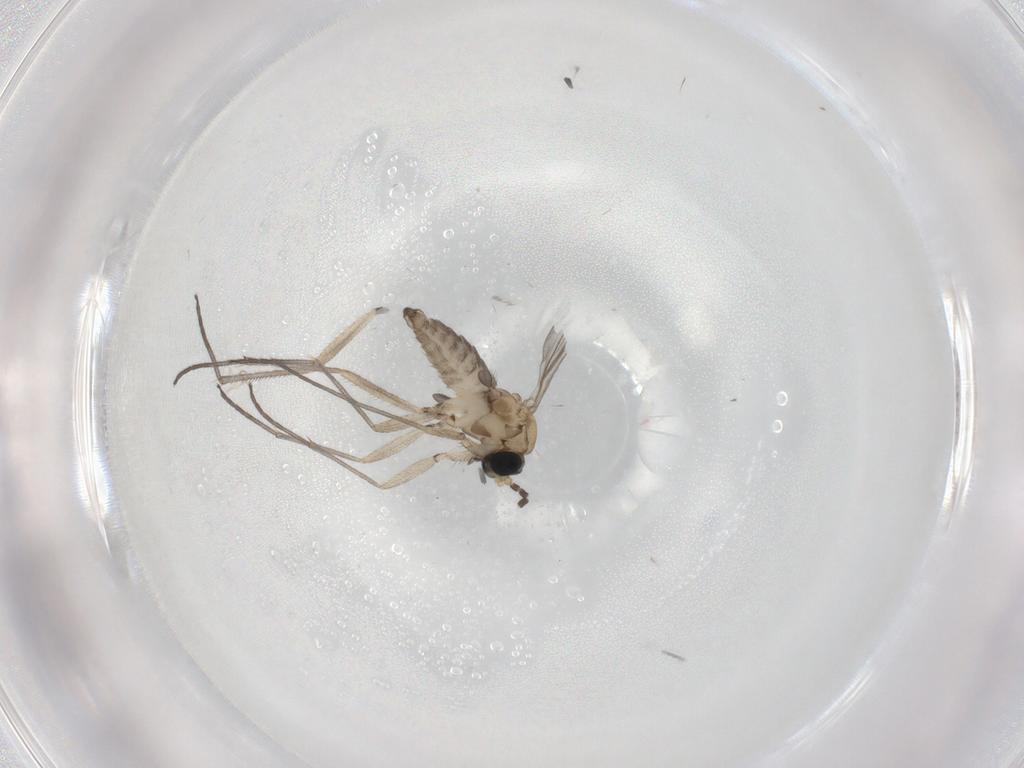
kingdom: Animalia
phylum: Arthropoda
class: Insecta
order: Diptera
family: Sciaridae
